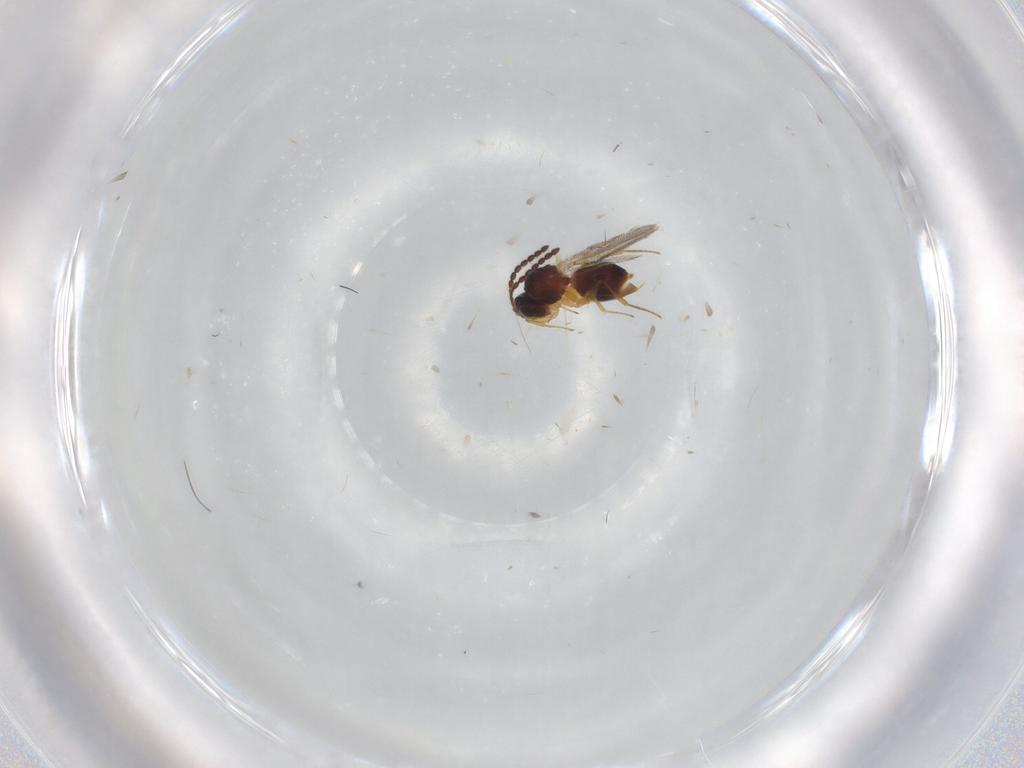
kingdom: Animalia
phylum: Arthropoda
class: Insecta
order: Hymenoptera
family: Figitidae
